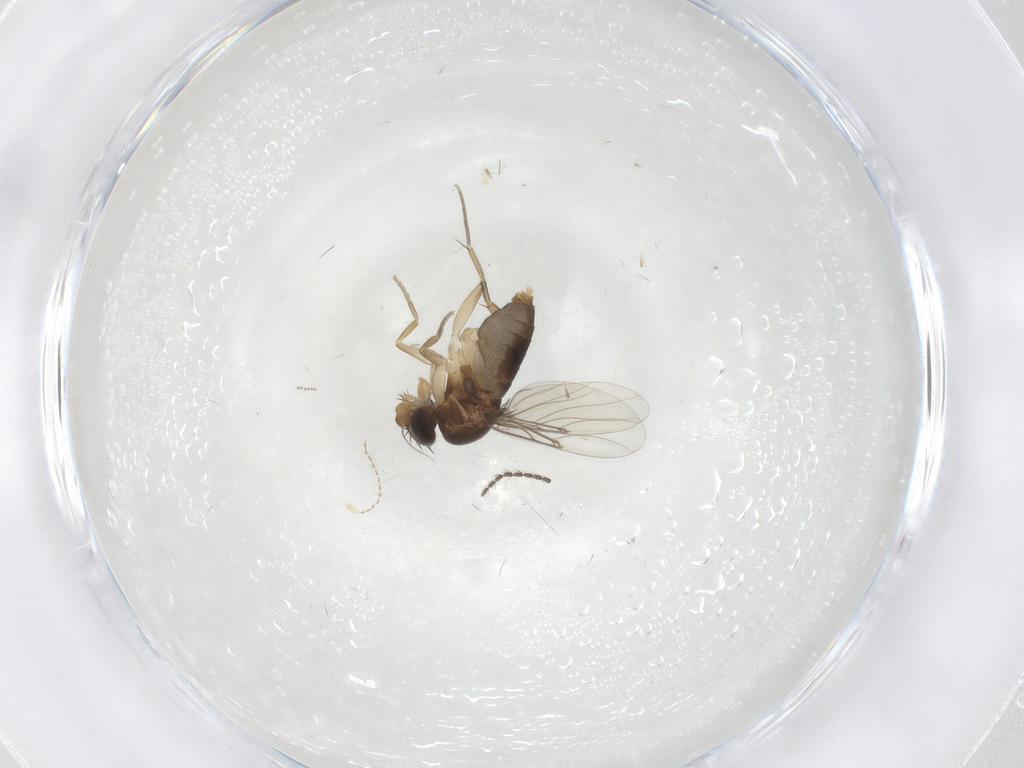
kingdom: Animalia
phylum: Arthropoda
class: Insecta
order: Diptera
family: Phoridae
